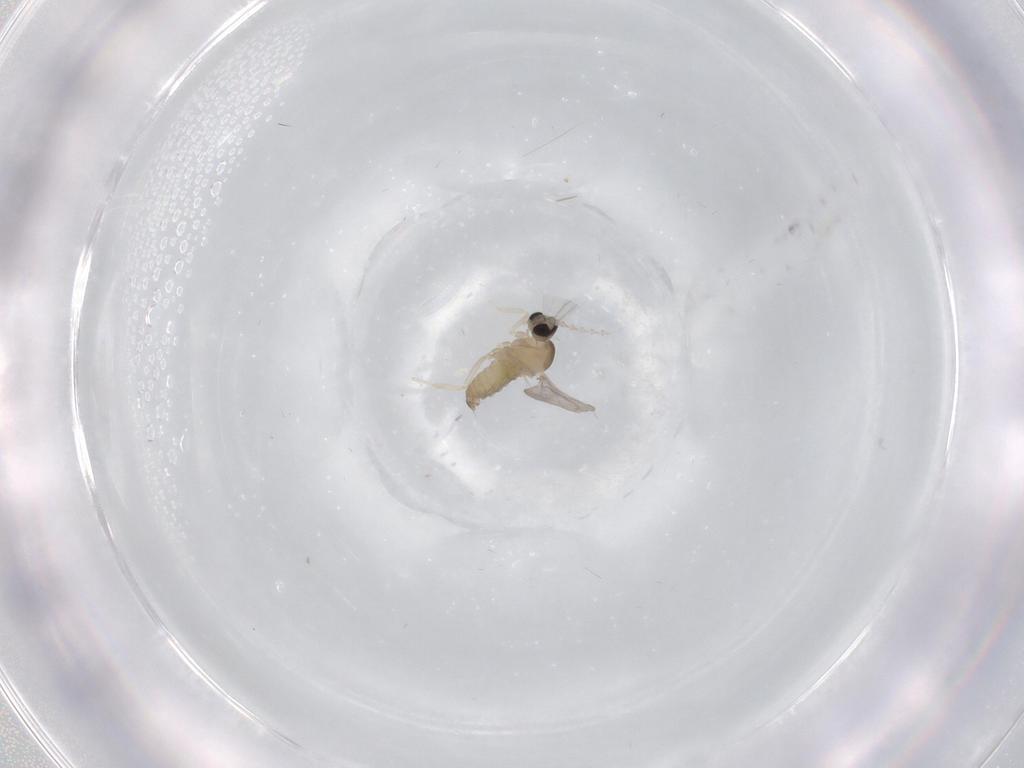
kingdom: Animalia
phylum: Arthropoda
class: Insecta
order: Diptera
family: Cecidomyiidae
